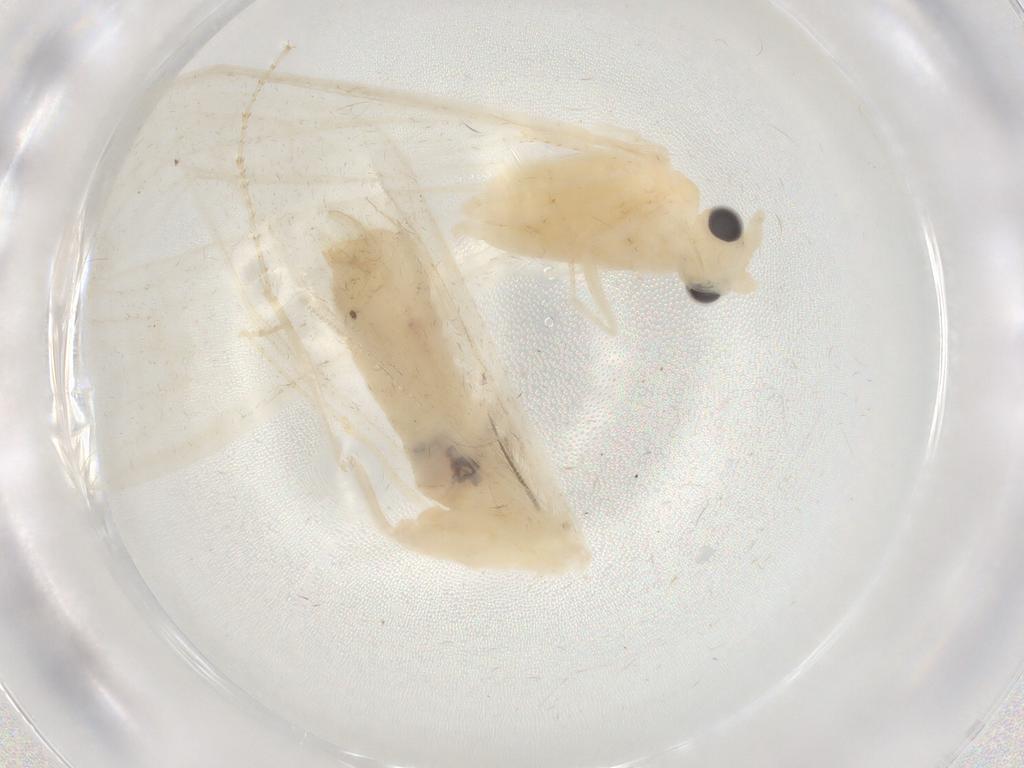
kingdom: Animalia
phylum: Arthropoda
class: Insecta
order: Trichoptera
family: Leptoceridae
